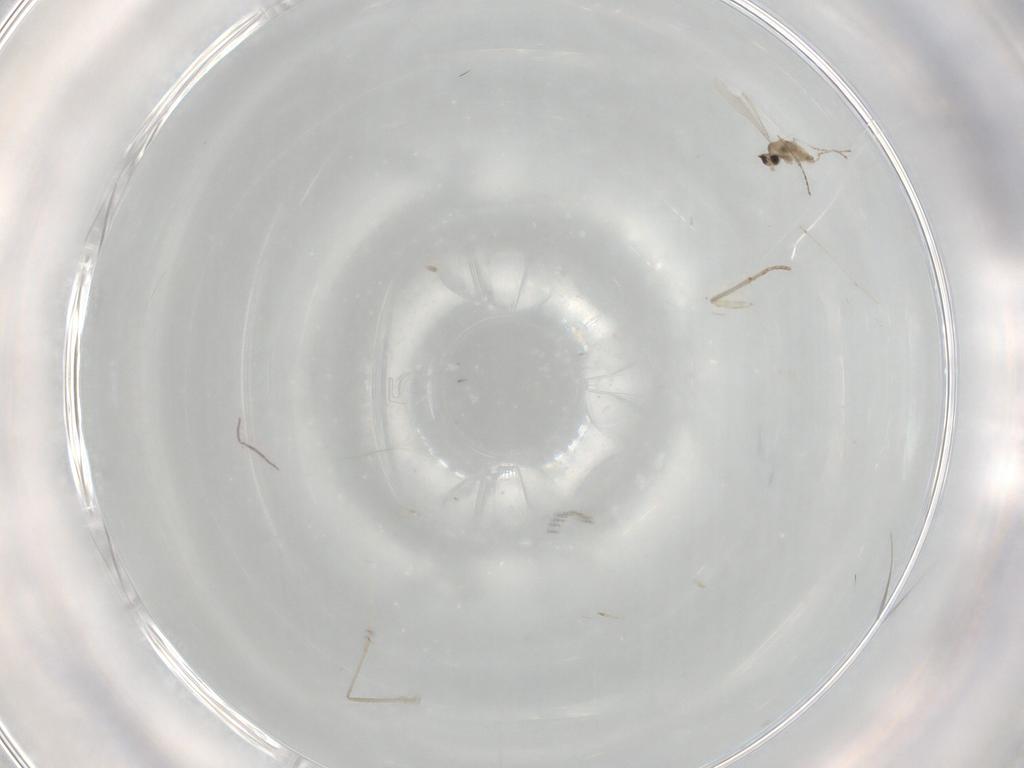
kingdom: Animalia
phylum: Arthropoda
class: Insecta
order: Diptera
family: Cecidomyiidae
